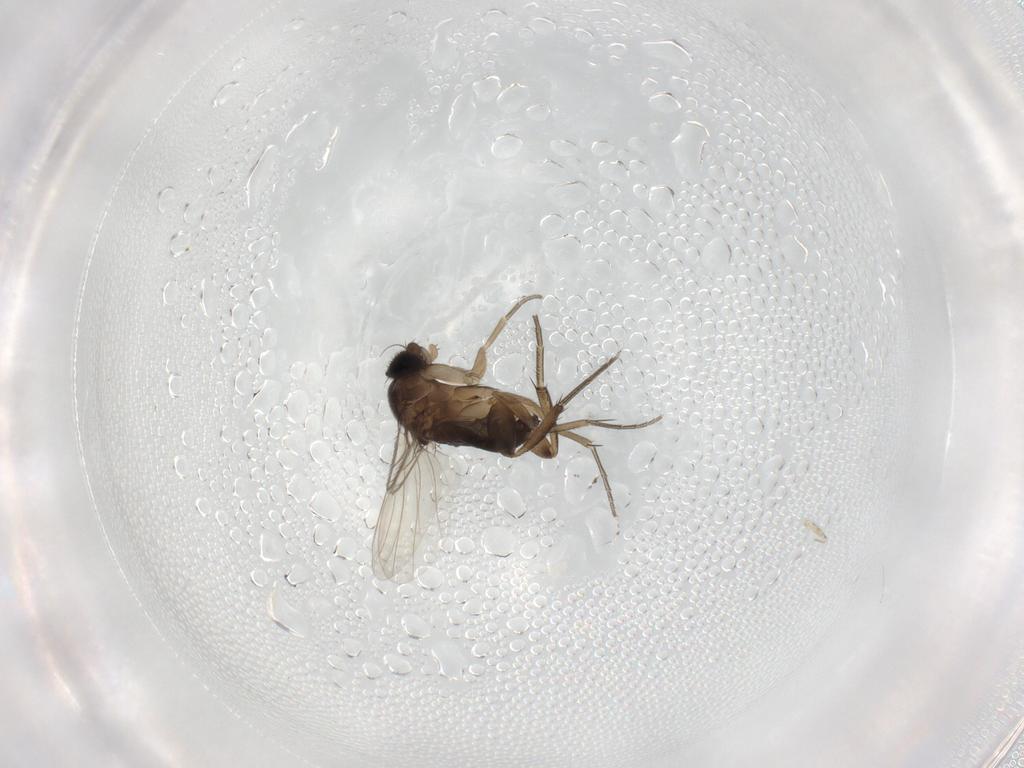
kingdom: Animalia
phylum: Arthropoda
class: Insecta
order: Diptera
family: Phoridae
